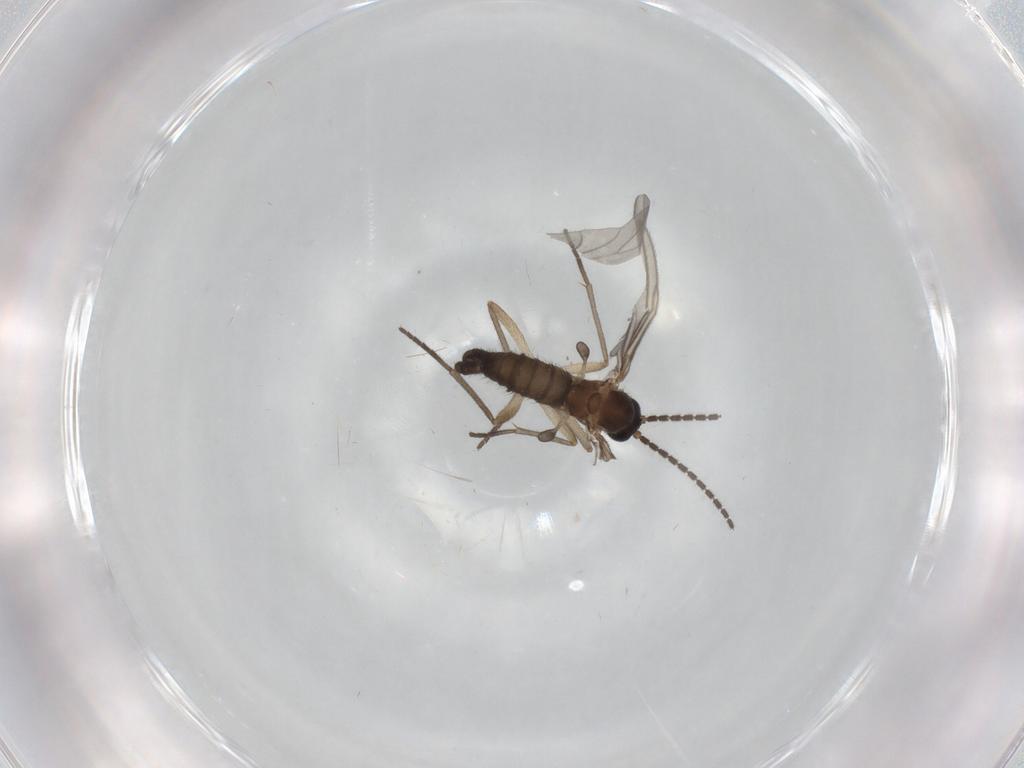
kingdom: Animalia
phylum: Arthropoda
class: Insecta
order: Diptera
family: Sciaridae
